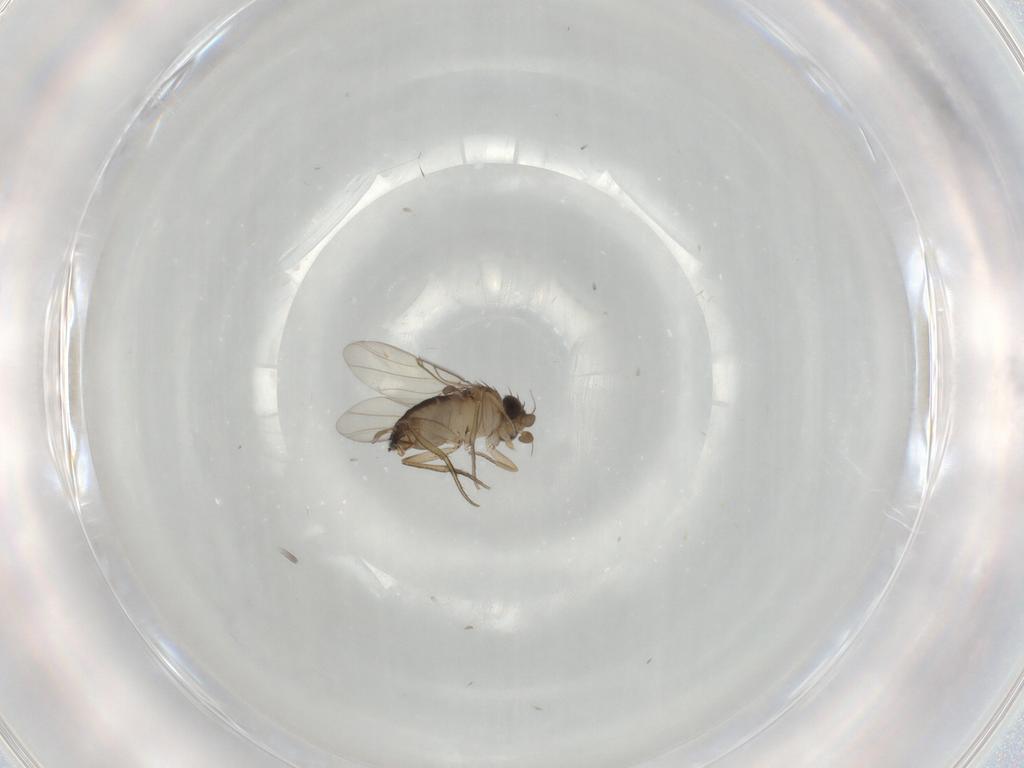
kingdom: Animalia
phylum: Arthropoda
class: Insecta
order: Diptera
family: Phoridae
